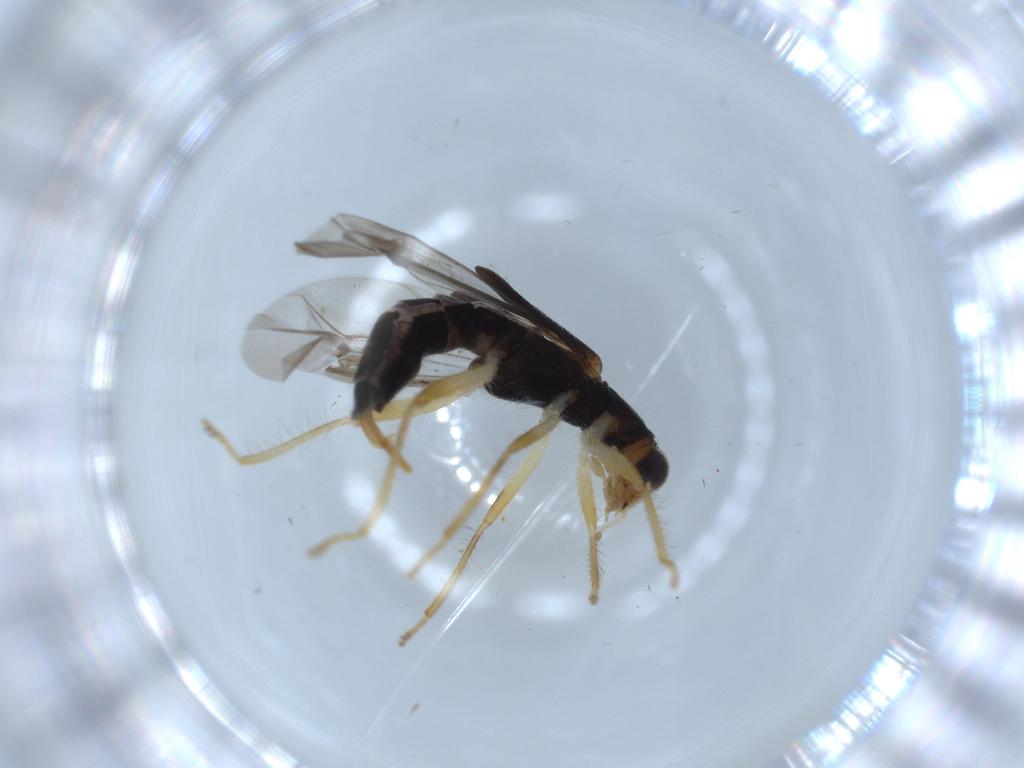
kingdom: Animalia
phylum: Arthropoda
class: Insecta
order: Coleoptera
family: Cleridae
